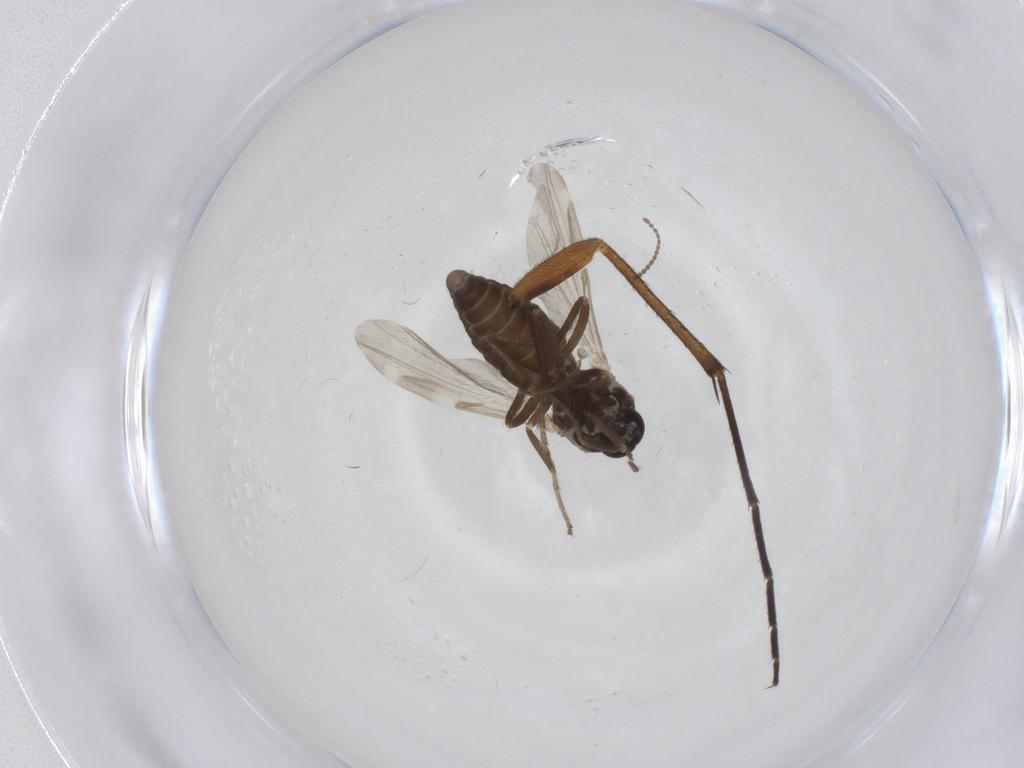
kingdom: Animalia
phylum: Arthropoda
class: Insecta
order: Diptera
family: Ceratopogonidae
